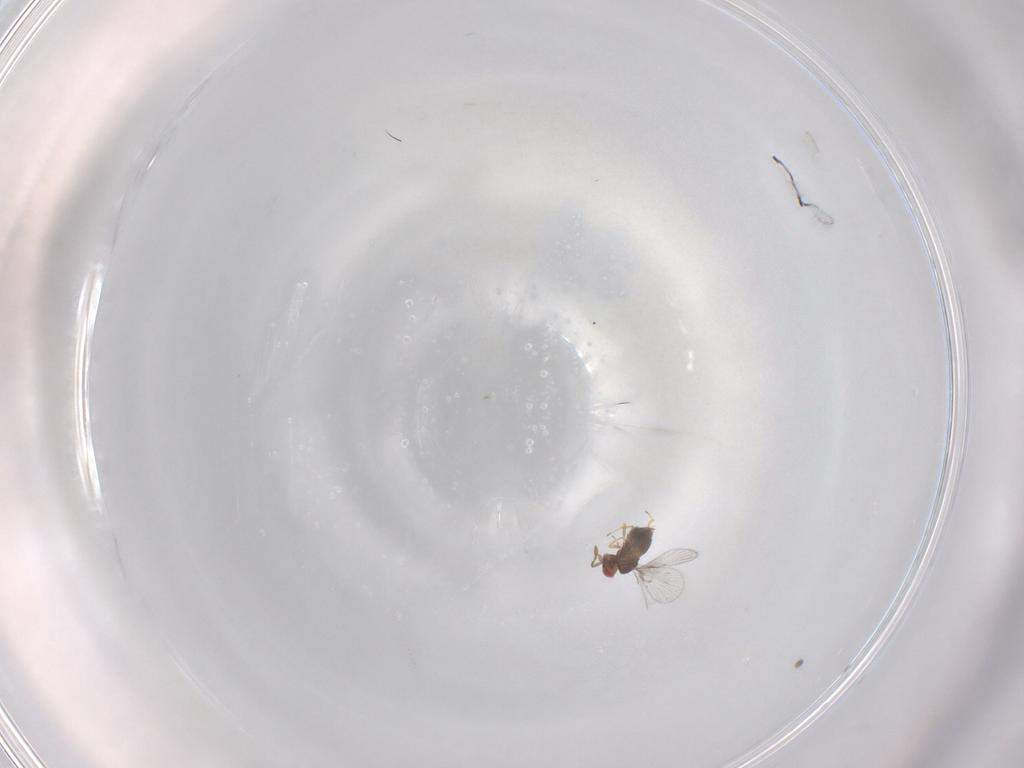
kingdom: Animalia
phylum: Arthropoda
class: Insecta
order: Hymenoptera
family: Trichogrammatidae
